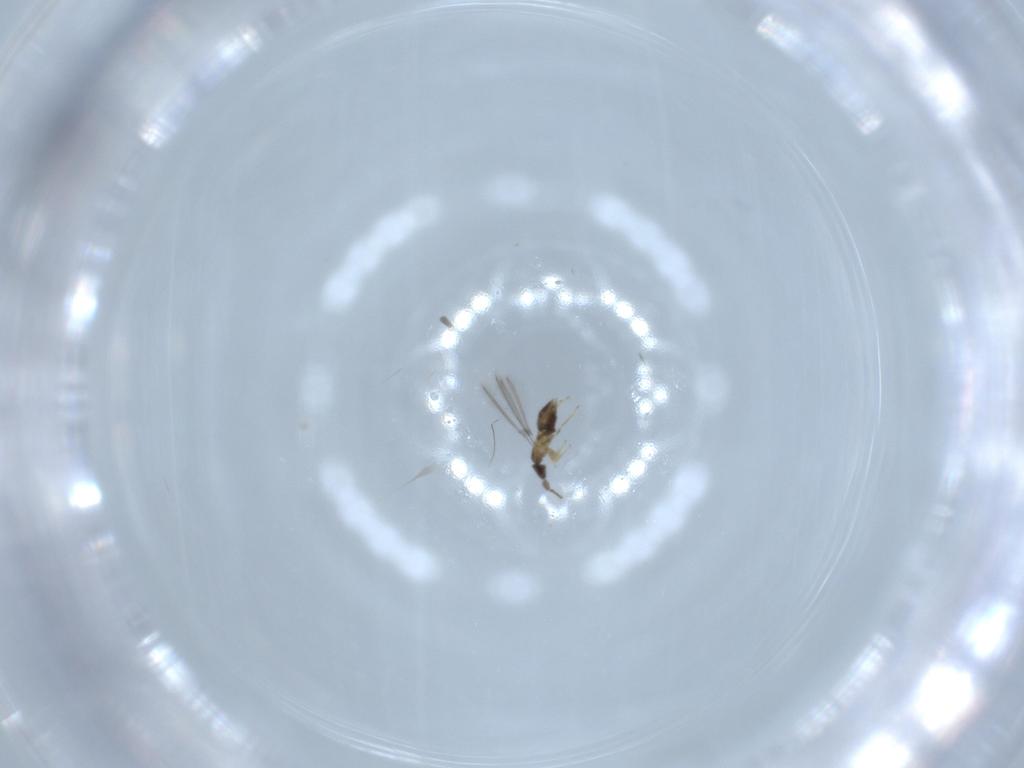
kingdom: Animalia
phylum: Arthropoda
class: Insecta
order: Hymenoptera
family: Mymaridae
